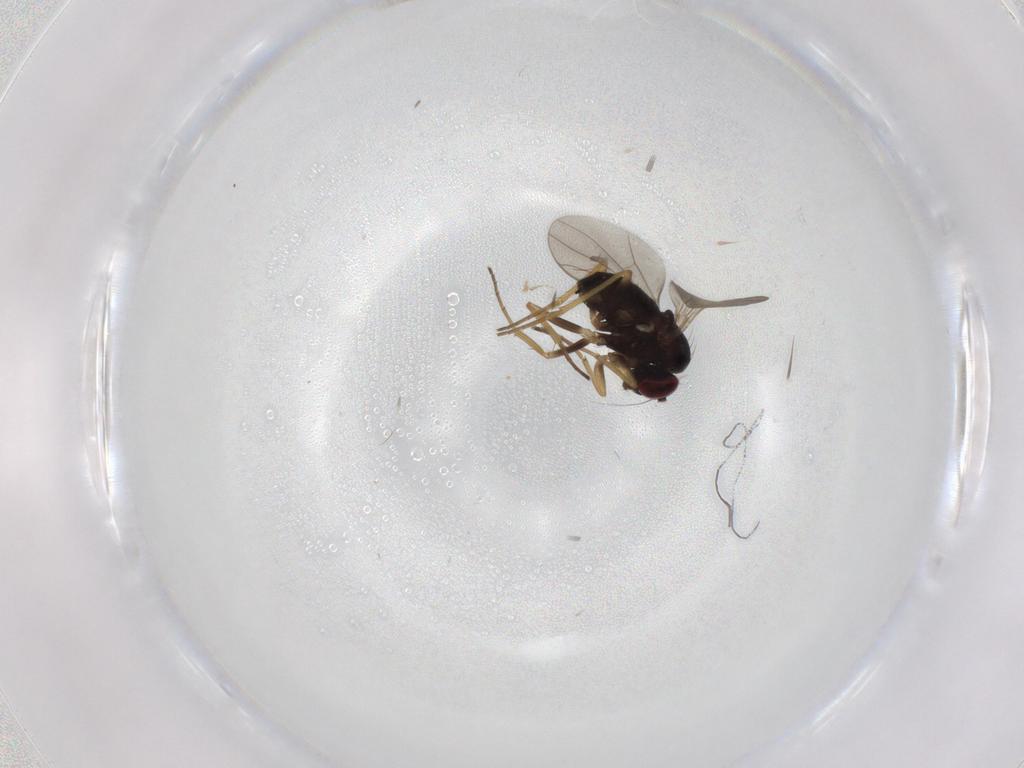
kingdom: Animalia
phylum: Arthropoda
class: Insecta
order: Diptera
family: Dolichopodidae
